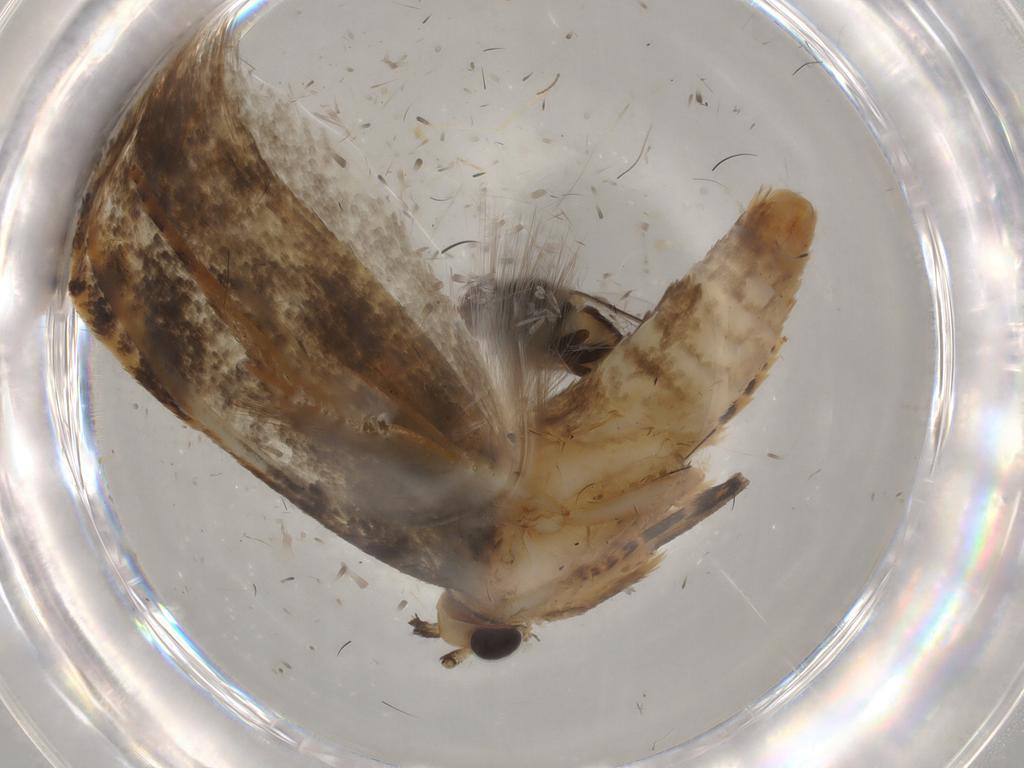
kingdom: Animalia
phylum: Arthropoda
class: Insecta
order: Lepidoptera
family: Tineidae
